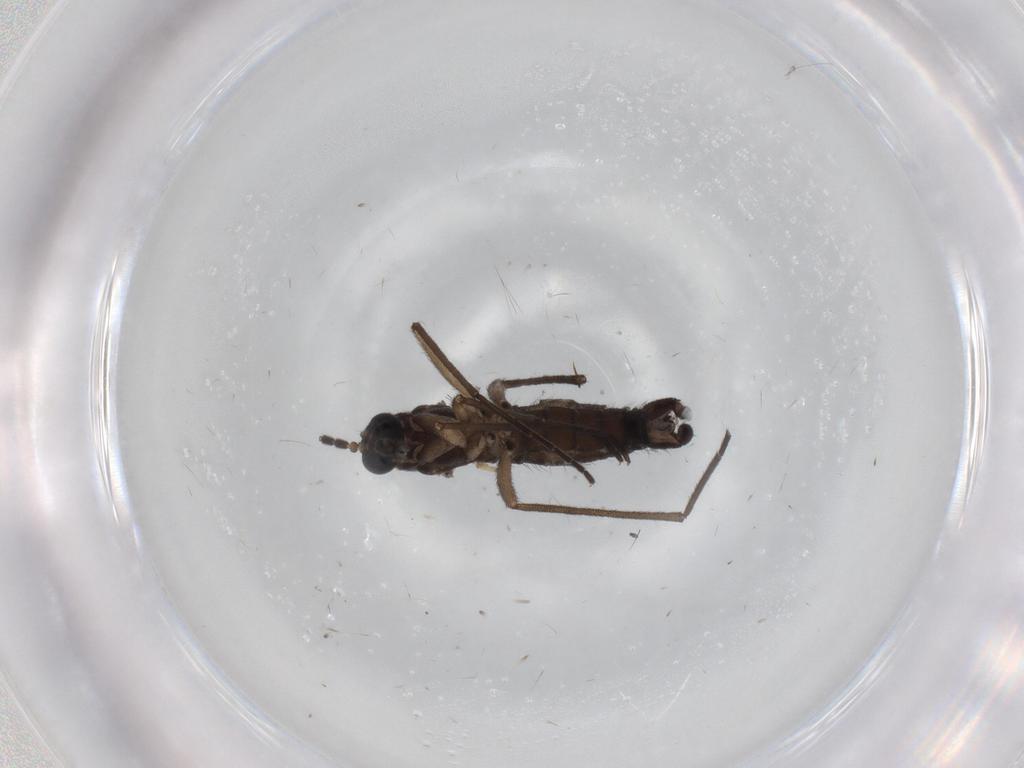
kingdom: Animalia
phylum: Arthropoda
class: Insecta
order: Diptera
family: Sciaridae
